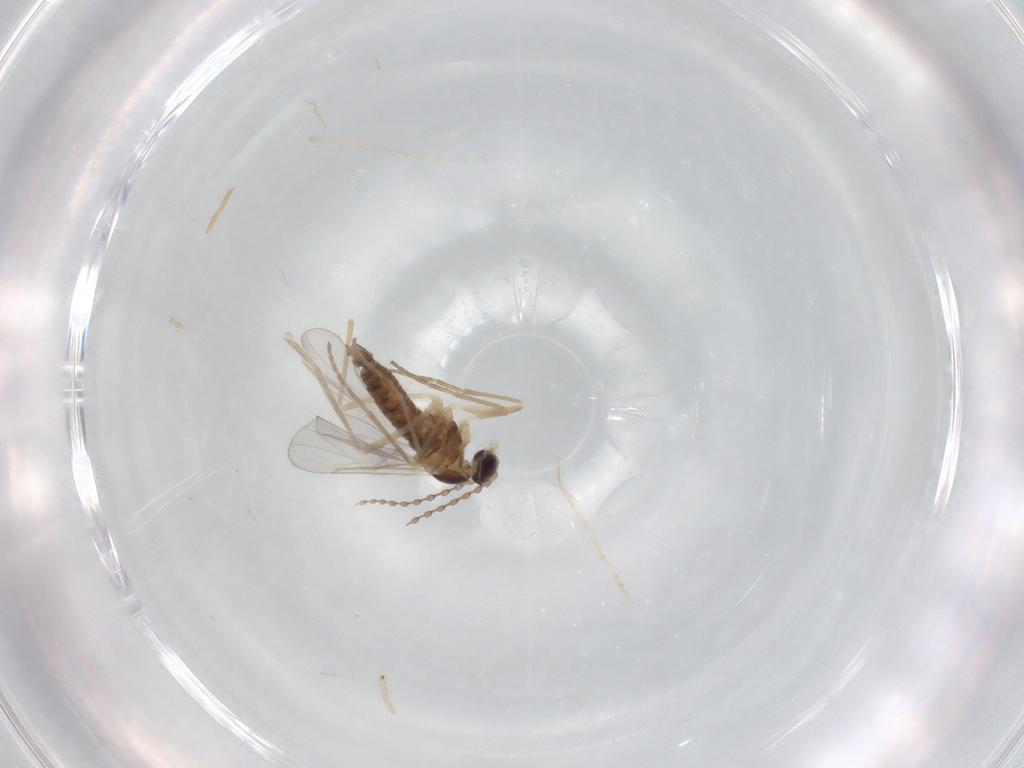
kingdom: Animalia
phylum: Arthropoda
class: Insecta
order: Diptera
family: Cecidomyiidae
